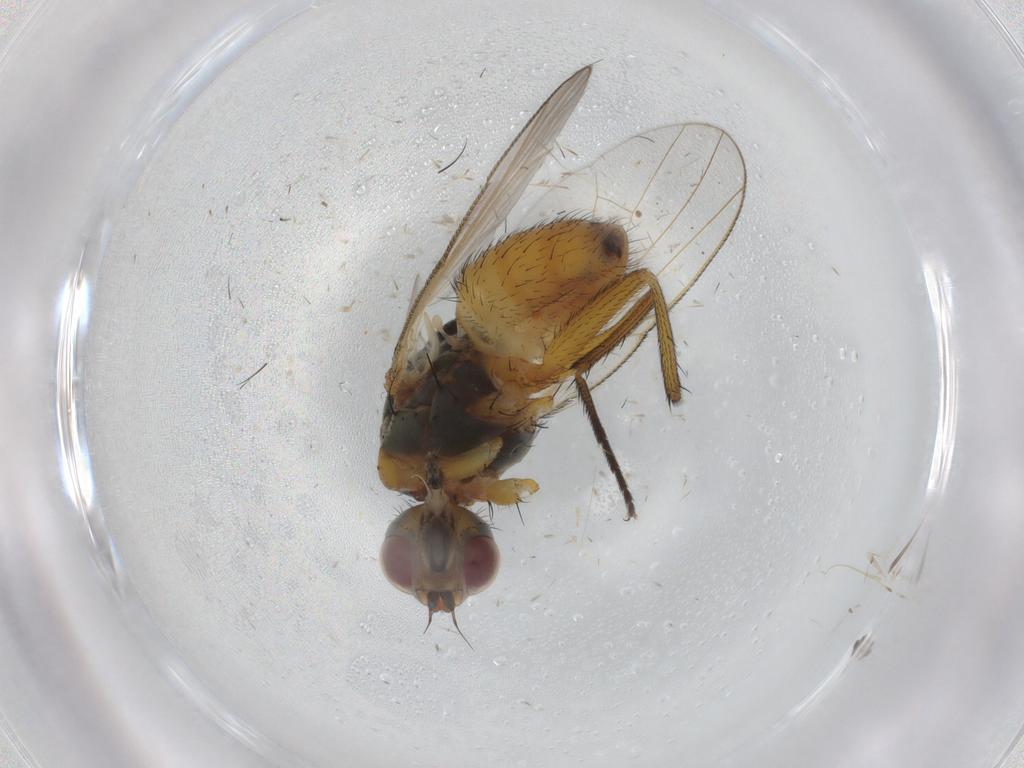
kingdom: Animalia
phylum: Arthropoda
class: Insecta
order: Diptera
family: Muscidae
